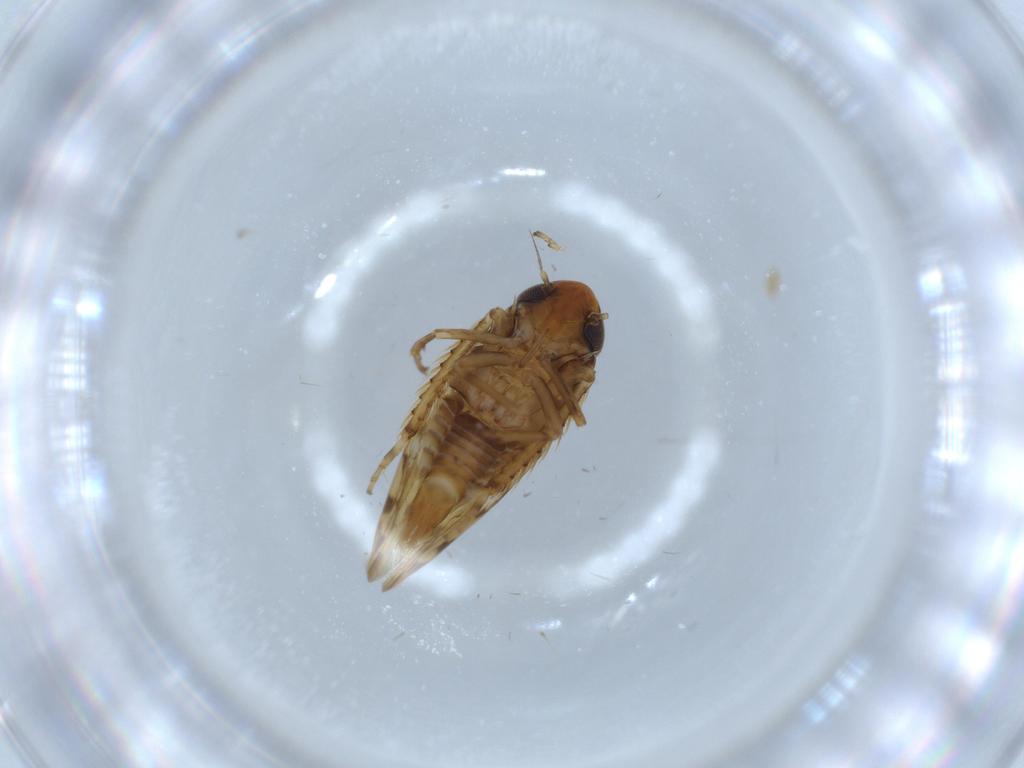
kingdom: Animalia
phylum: Arthropoda
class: Insecta
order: Hemiptera
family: Cicadellidae
